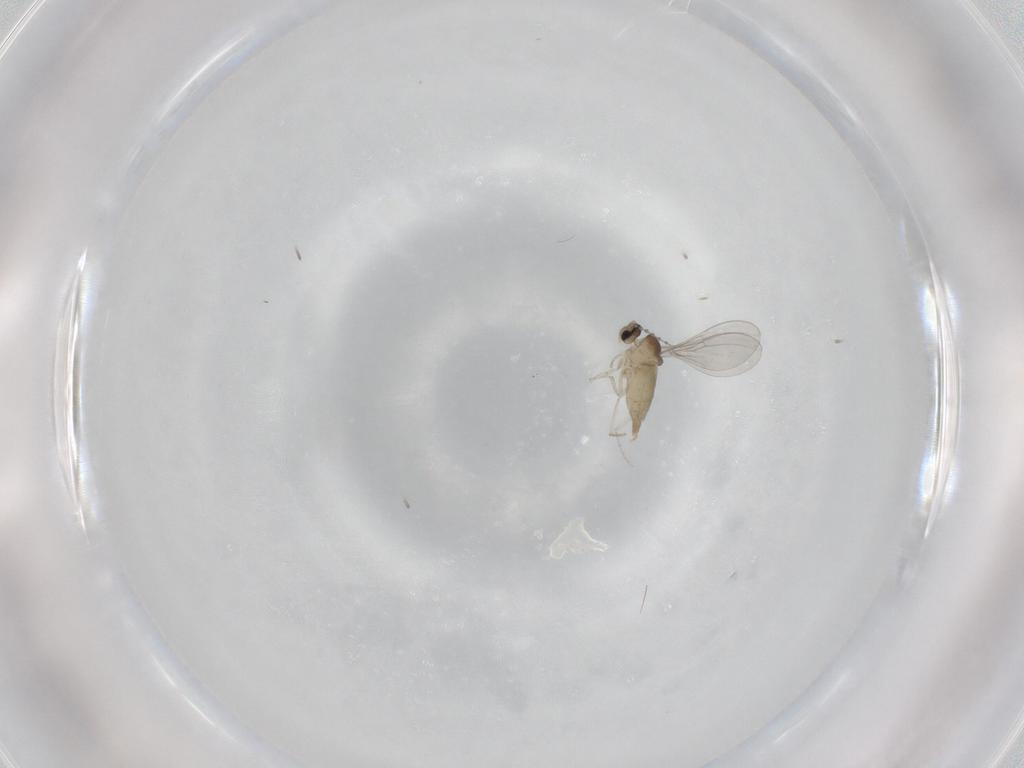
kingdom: Animalia
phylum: Arthropoda
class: Insecta
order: Diptera
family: Cecidomyiidae
